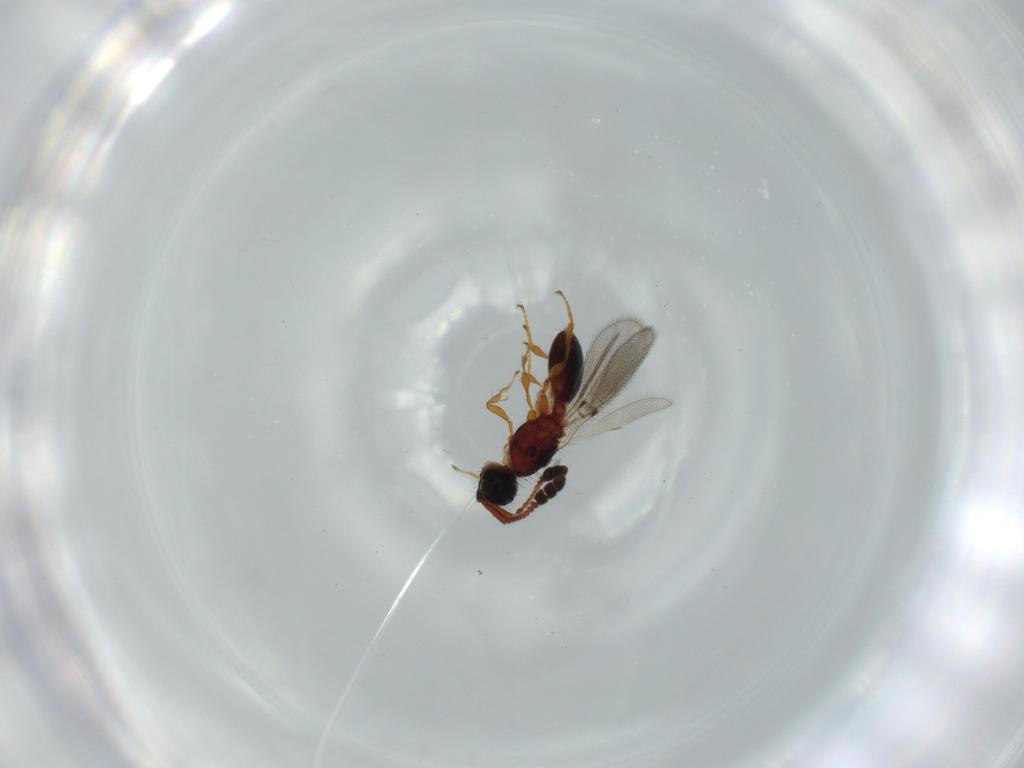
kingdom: Animalia
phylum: Arthropoda
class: Insecta
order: Hymenoptera
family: Diapriidae
